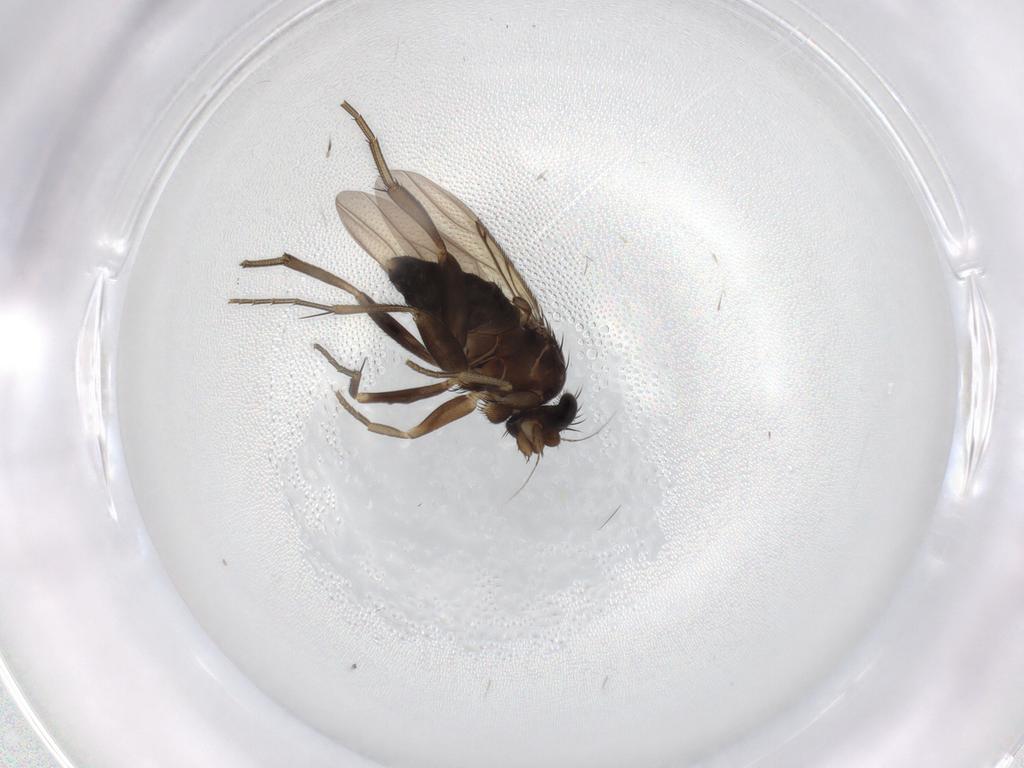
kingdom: Animalia
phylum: Arthropoda
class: Insecta
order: Diptera
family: Phoridae
